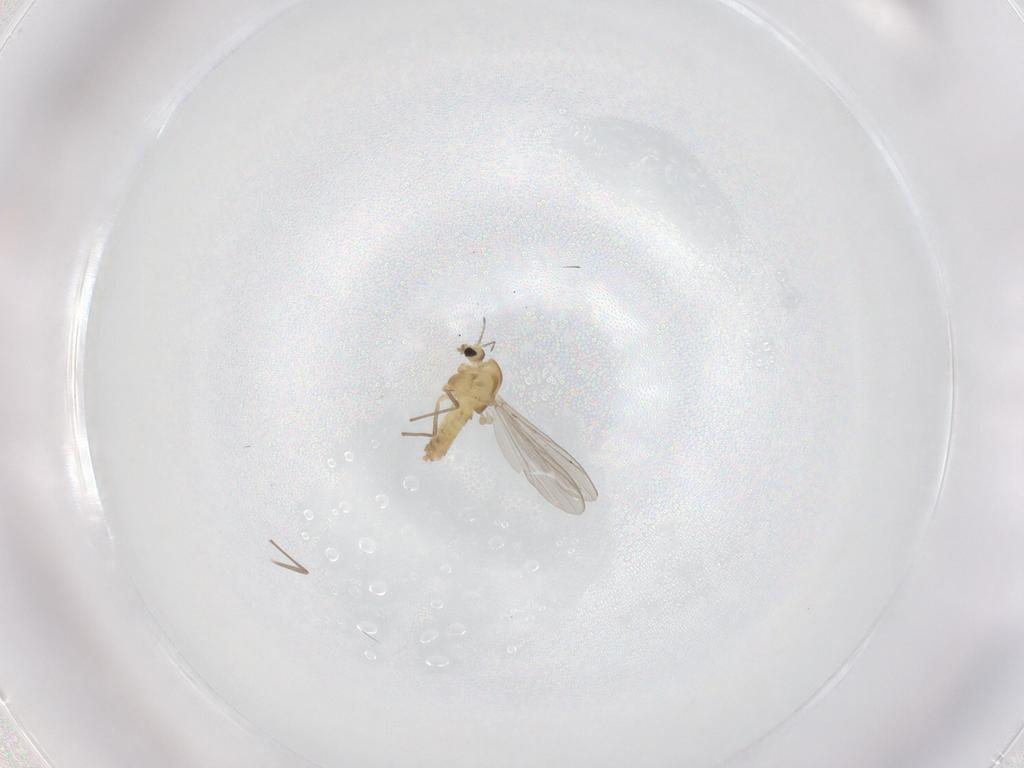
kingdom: Animalia
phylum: Arthropoda
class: Insecta
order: Diptera
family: Chironomidae
